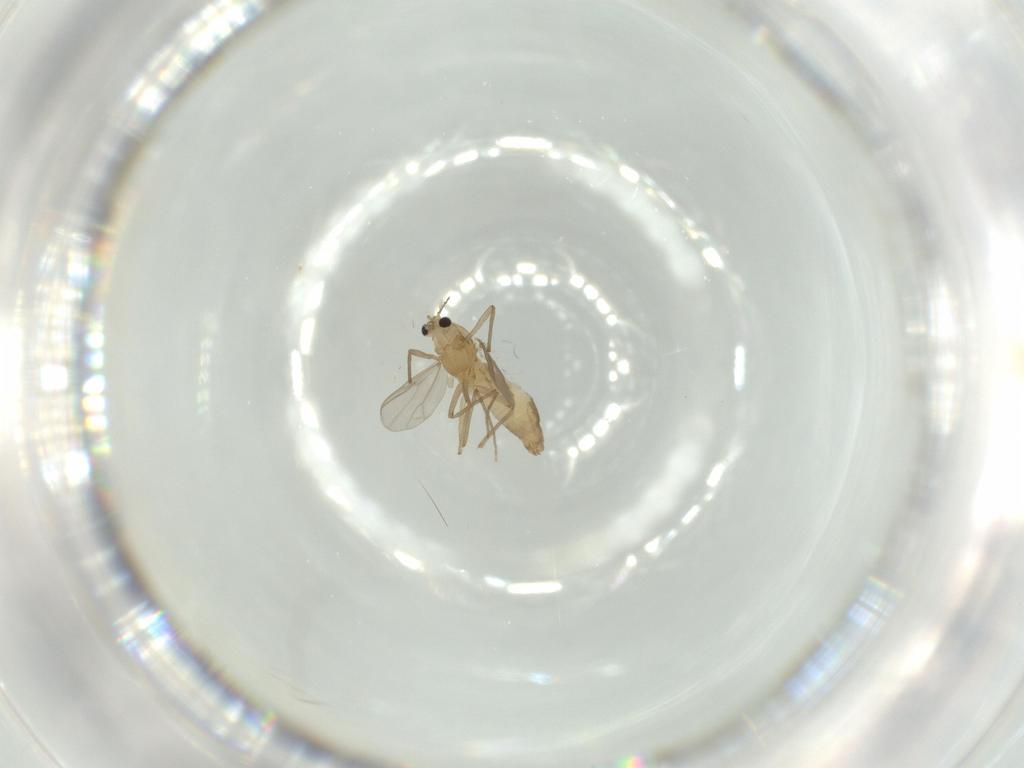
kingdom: Animalia
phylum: Arthropoda
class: Insecta
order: Diptera
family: Chironomidae
